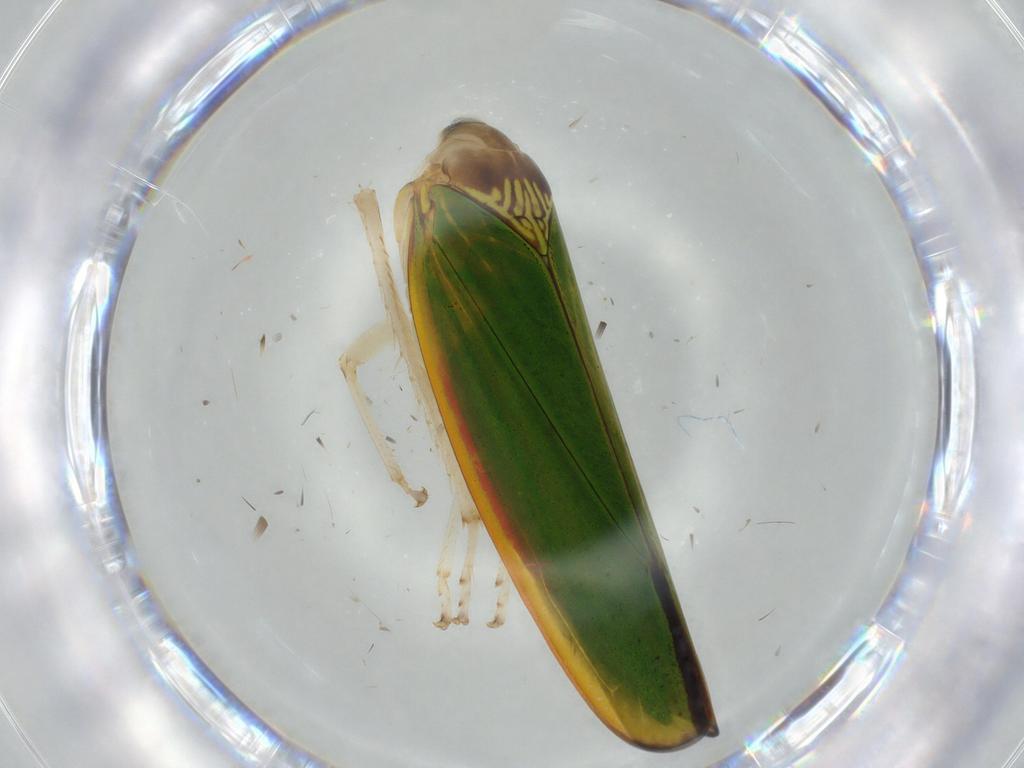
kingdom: Animalia
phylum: Arthropoda
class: Insecta
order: Hemiptera
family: Cicadellidae
